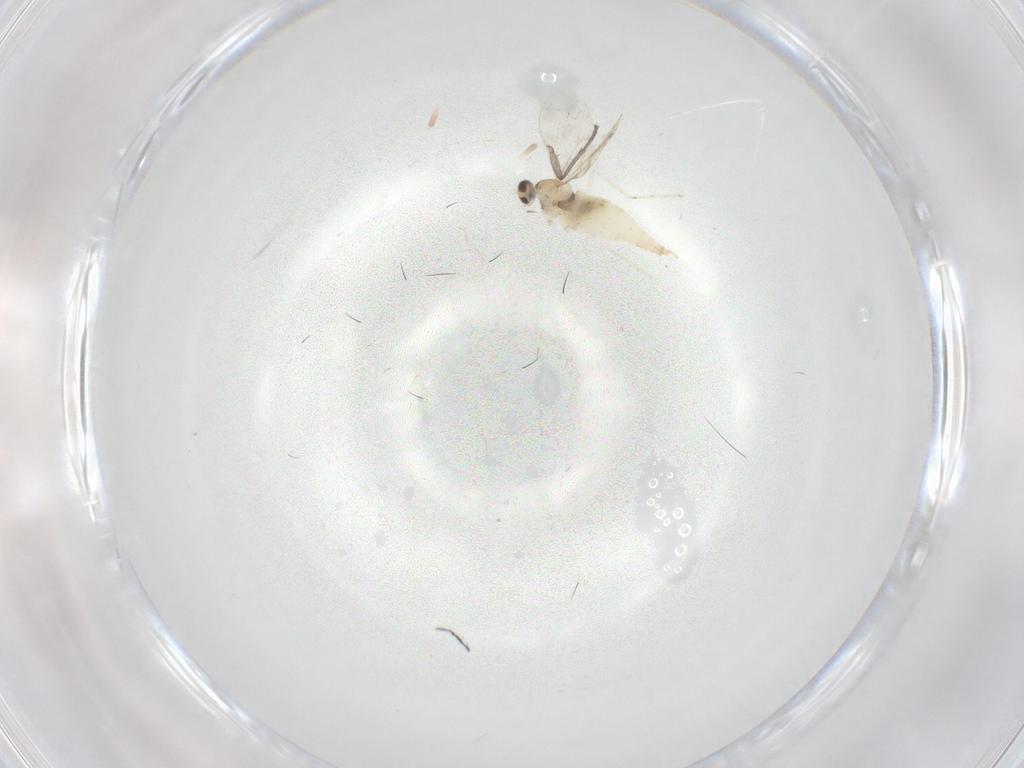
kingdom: Animalia
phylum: Arthropoda
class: Insecta
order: Diptera
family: Cecidomyiidae
